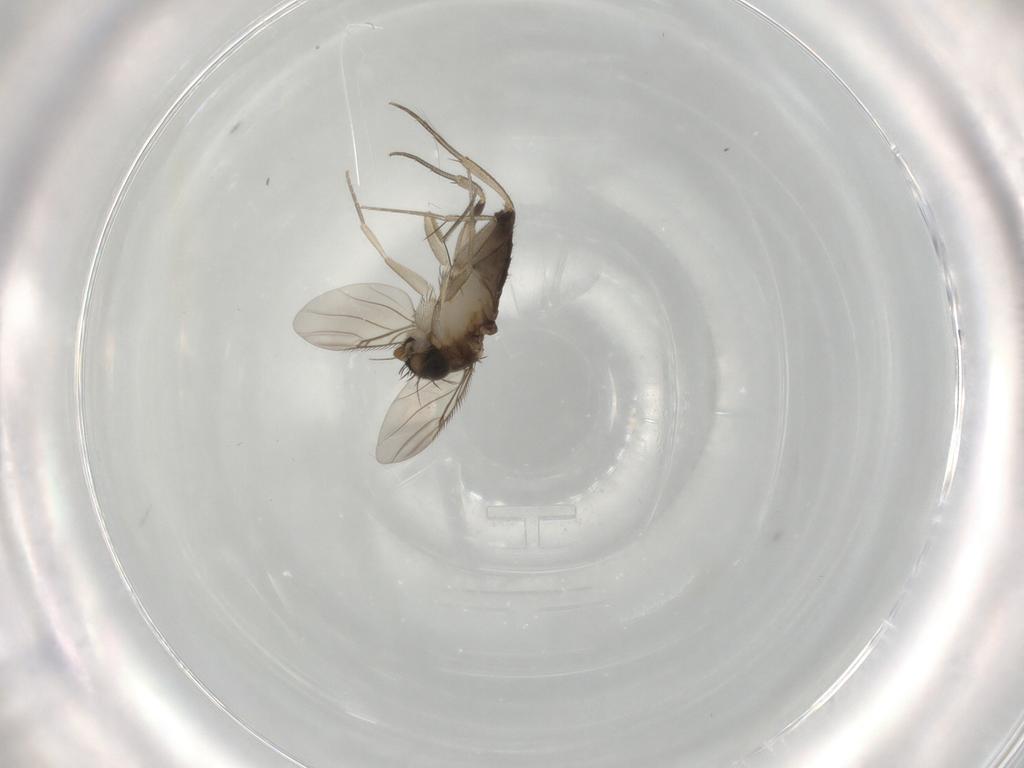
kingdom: Animalia
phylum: Arthropoda
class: Insecta
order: Diptera
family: Phoridae
